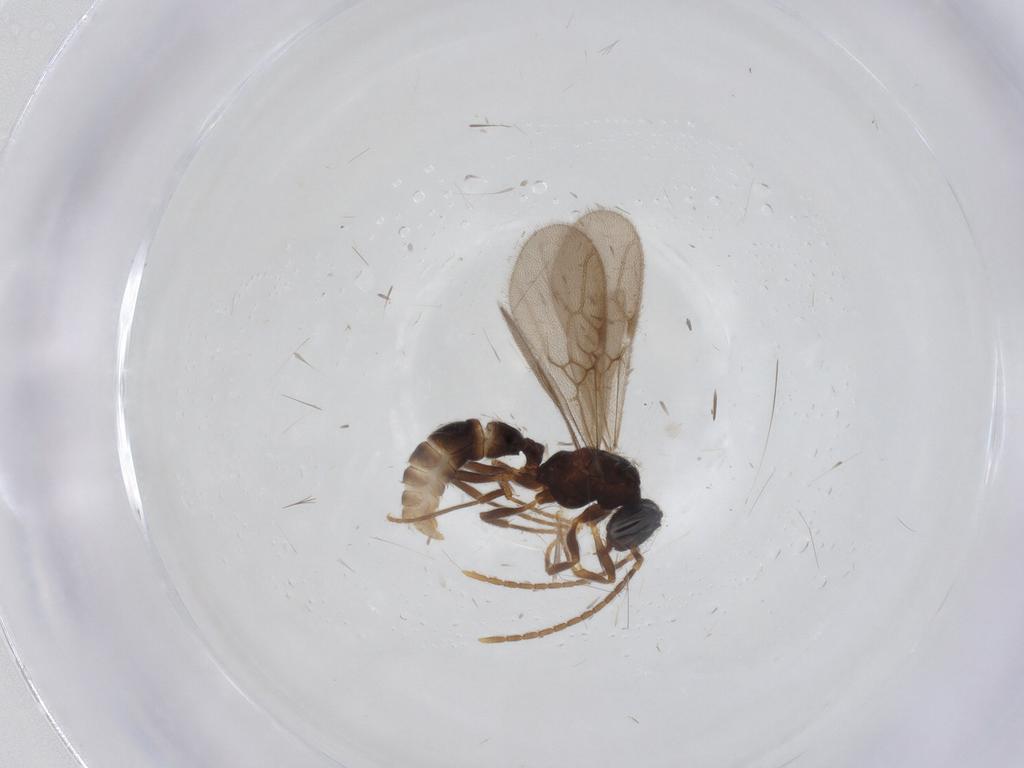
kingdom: Animalia
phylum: Arthropoda
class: Insecta
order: Hymenoptera
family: Formicidae
